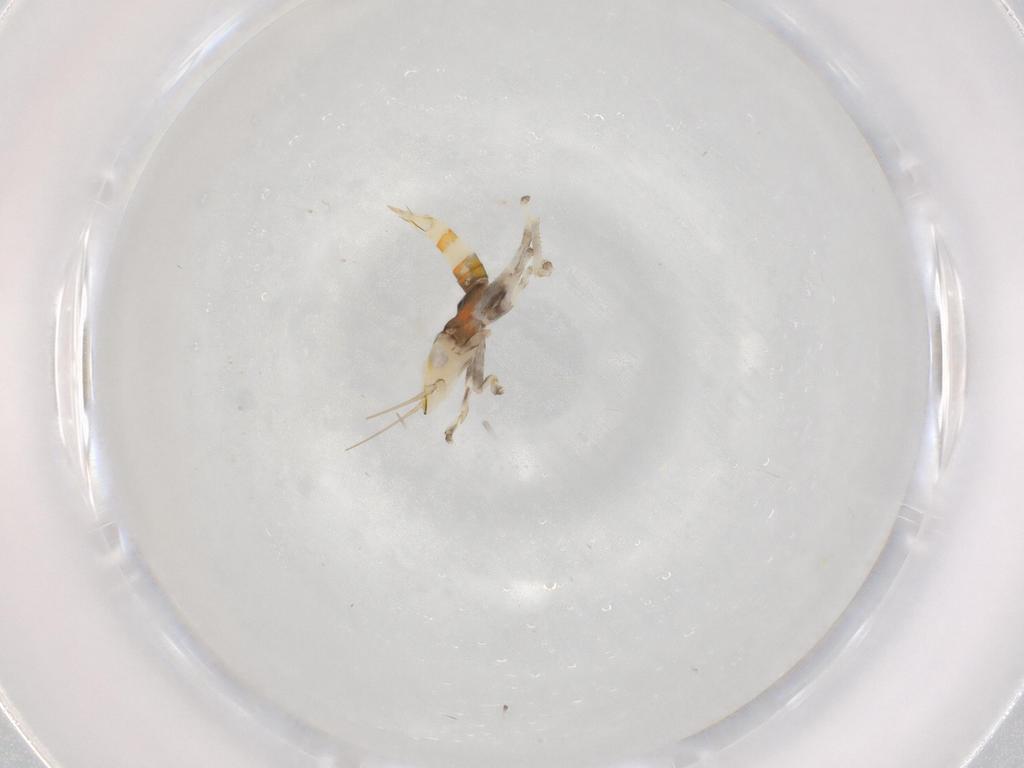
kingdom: Animalia
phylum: Arthropoda
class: Insecta
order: Hemiptera
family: Cicadellidae
